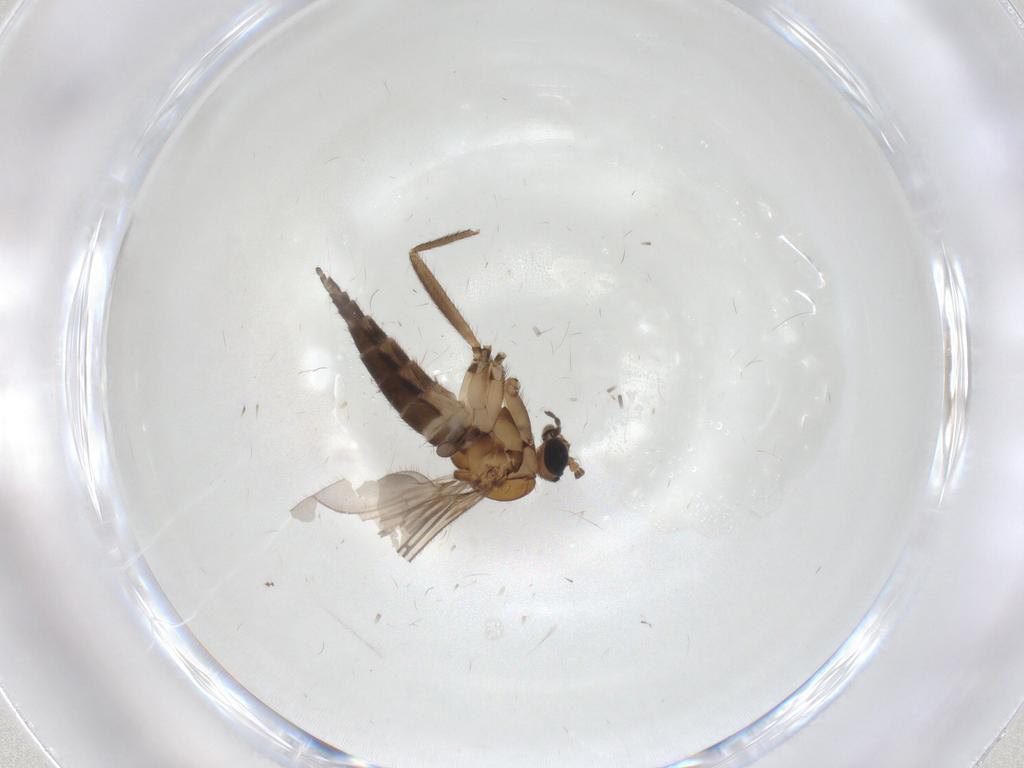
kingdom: Animalia
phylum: Arthropoda
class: Insecta
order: Diptera
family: Sciaridae
